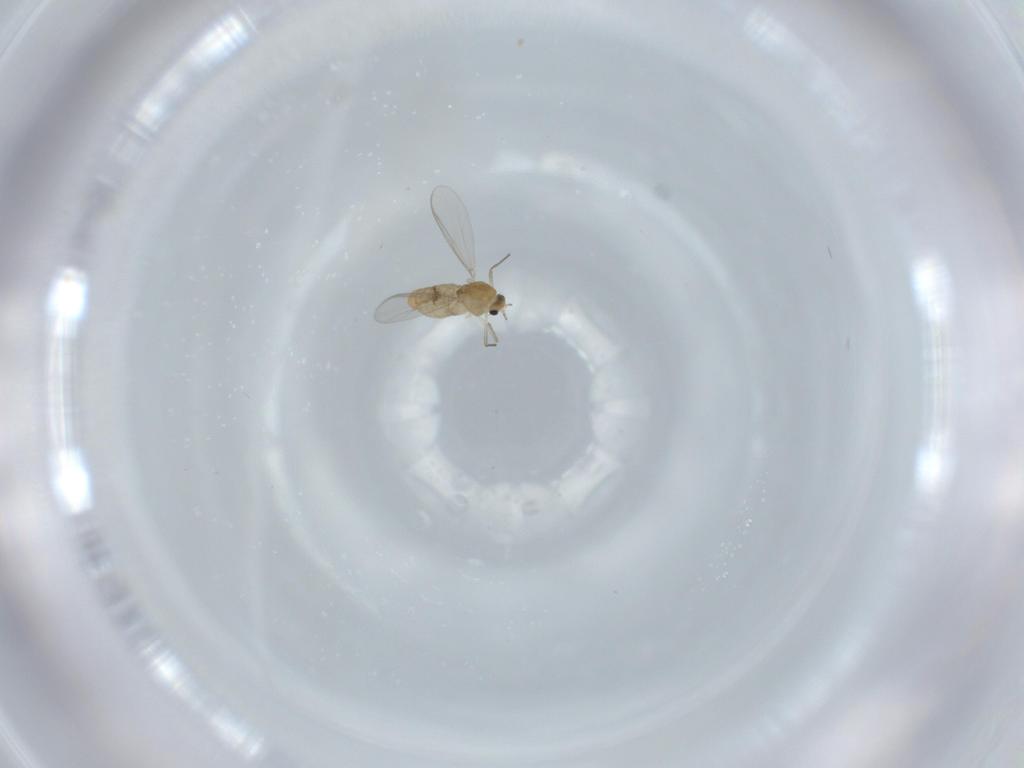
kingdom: Animalia
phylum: Arthropoda
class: Insecta
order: Diptera
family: Chironomidae
